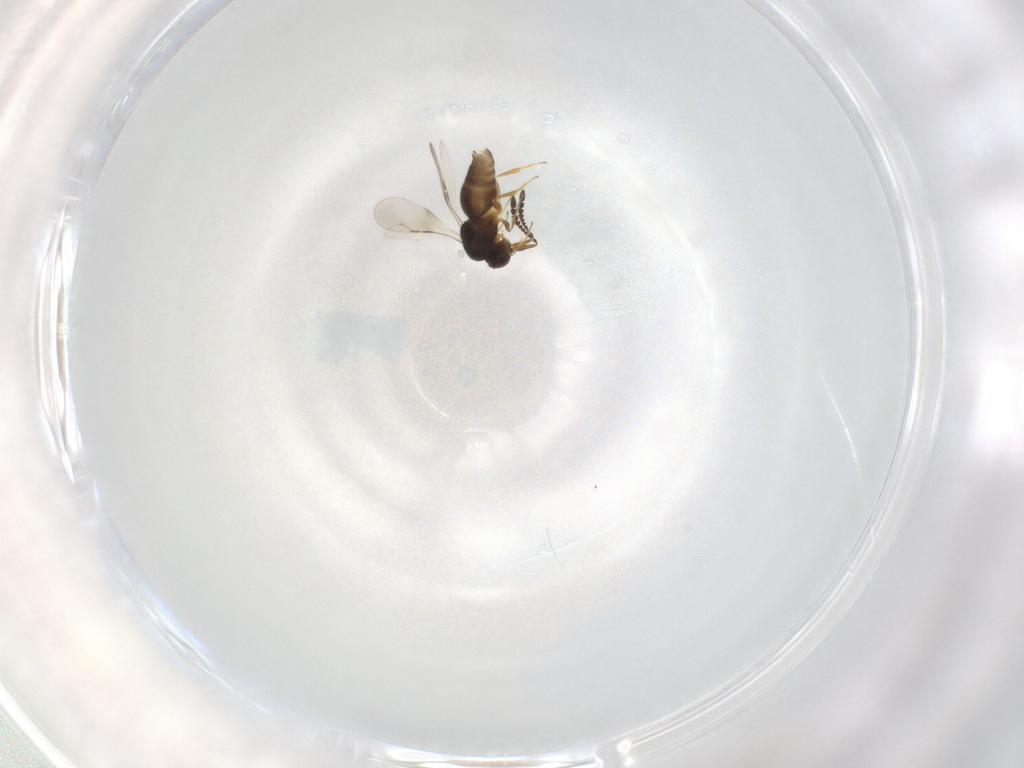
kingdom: Animalia
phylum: Arthropoda
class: Insecta
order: Hymenoptera
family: Ceraphronidae
